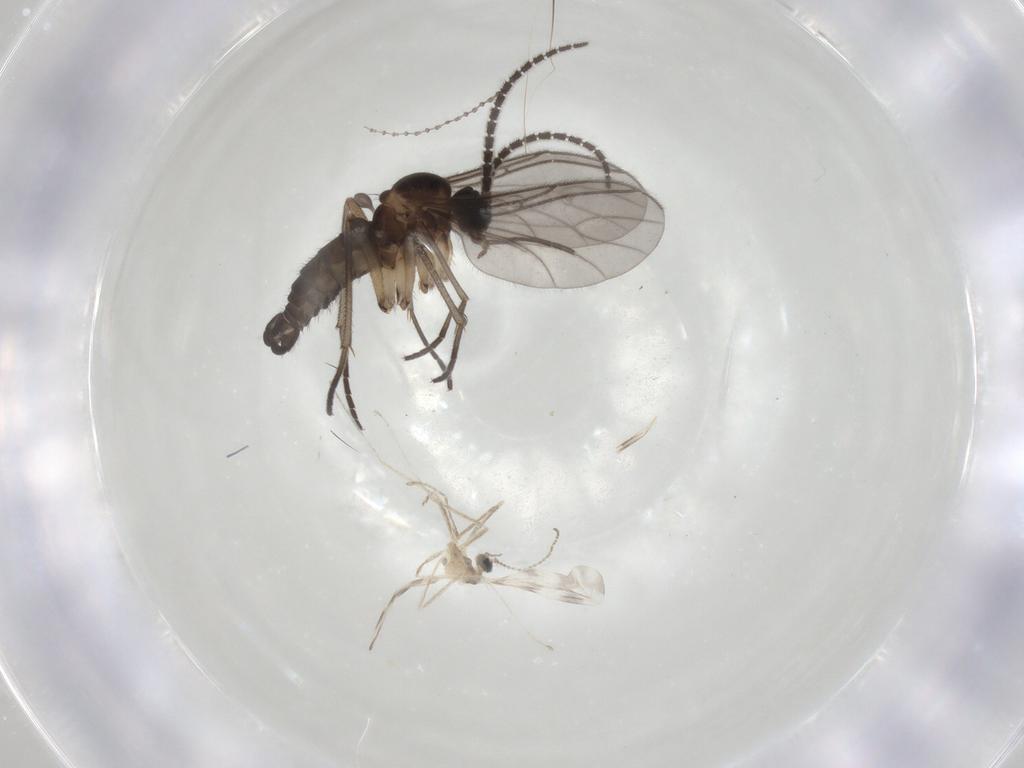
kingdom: Animalia
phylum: Arthropoda
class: Insecta
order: Diptera
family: Sciaridae
